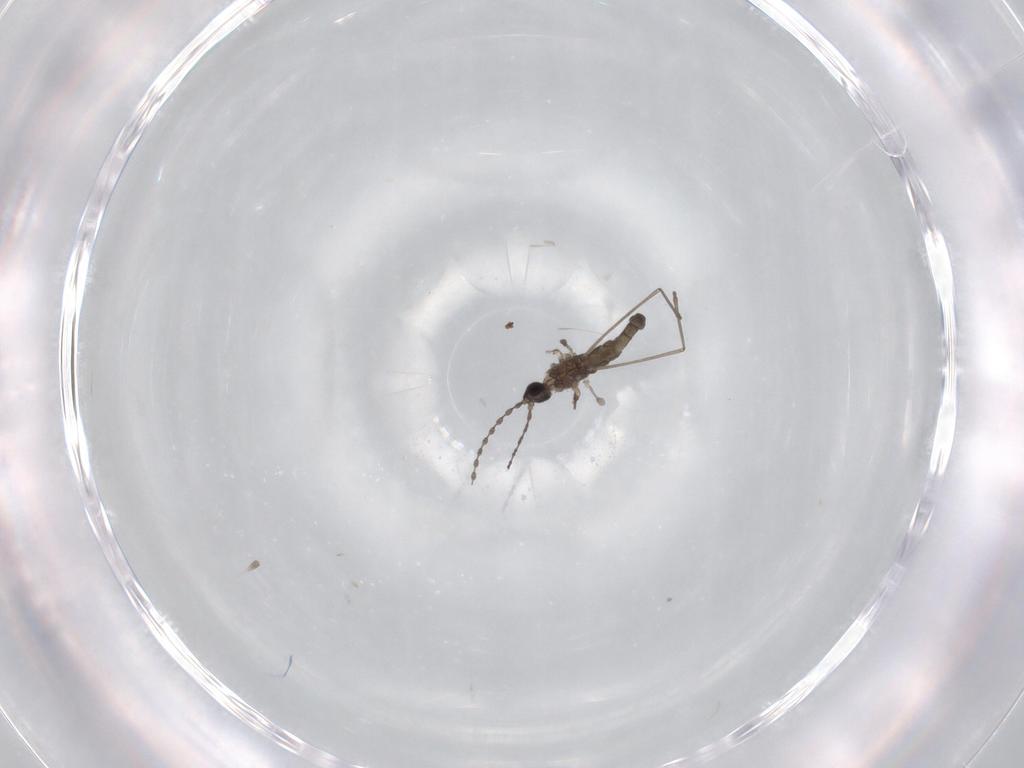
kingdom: Animalia
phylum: Arthropoda
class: Insecta
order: Diptera
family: Cecidomyiidae
